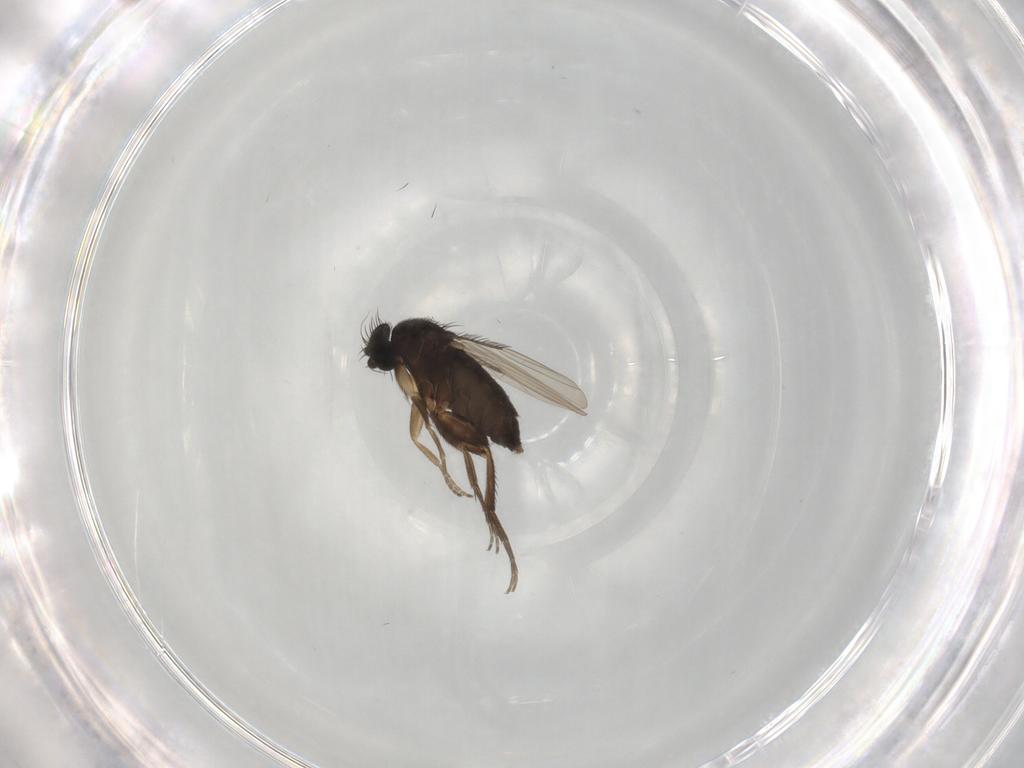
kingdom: Animalia
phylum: Arthropoda
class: Insecta
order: Diptera
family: Phoridae
